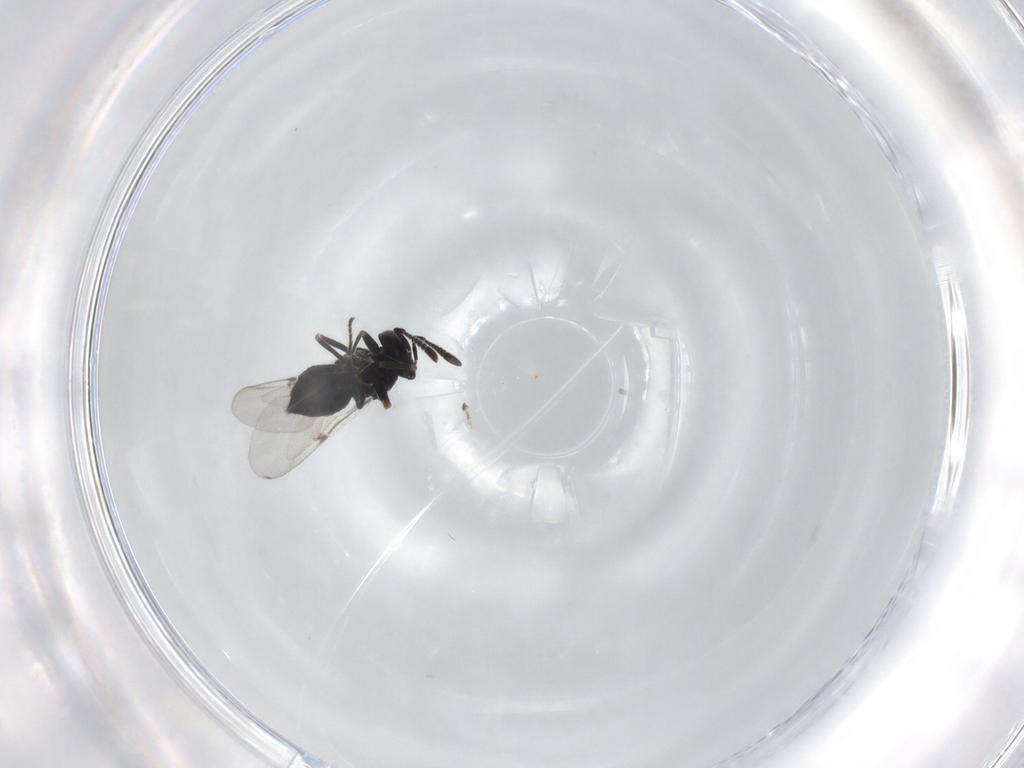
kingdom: Animalia
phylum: Arthropoda
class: Insecta
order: Hymenoptera
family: Encyrtidae
